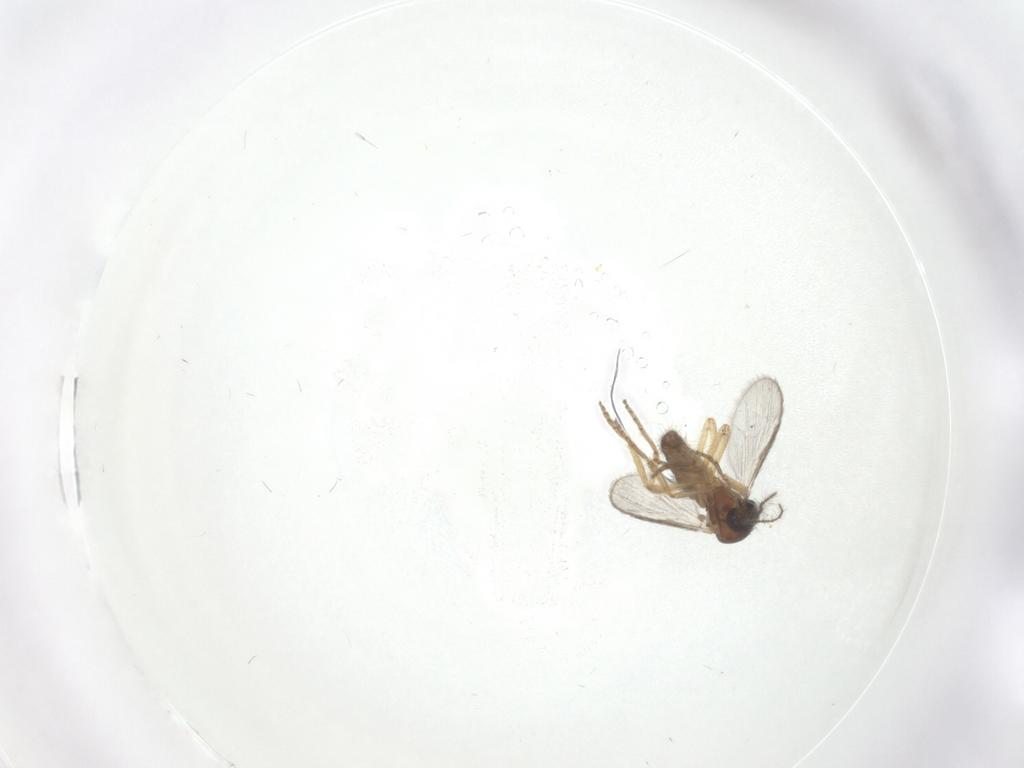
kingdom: Animalia
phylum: Arthropoda
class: Insecta
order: Diptera
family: Ceratopogonidae
